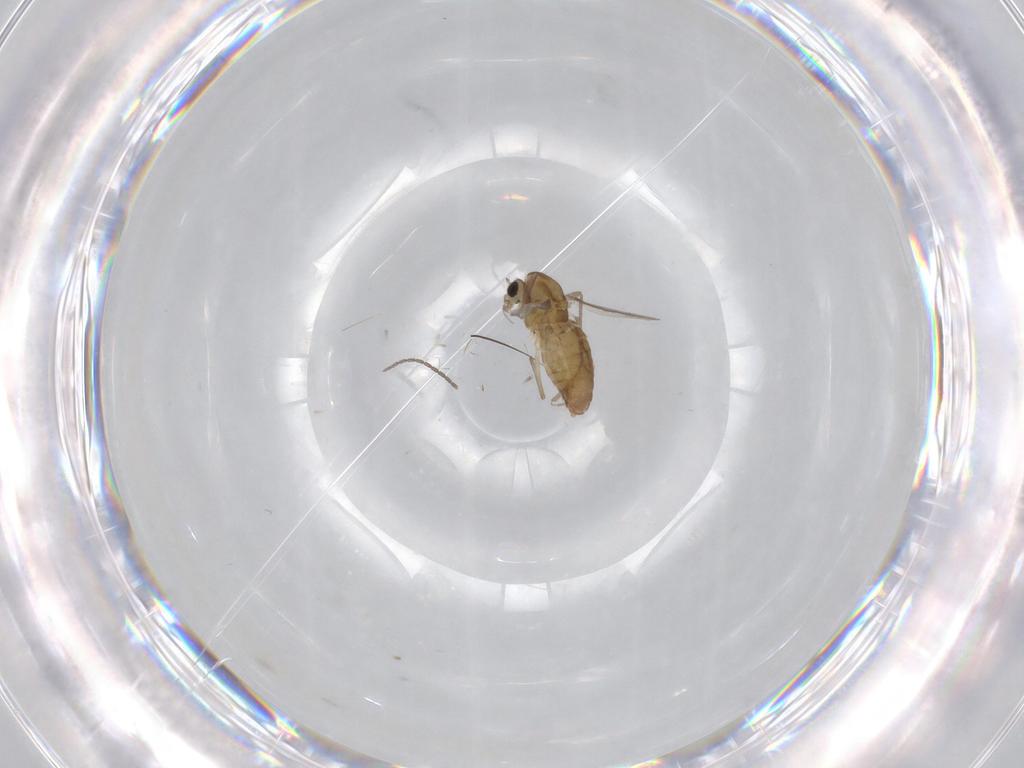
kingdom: Animalia
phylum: Arthropoda
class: Insecta
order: Diptera
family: Chironomidae
